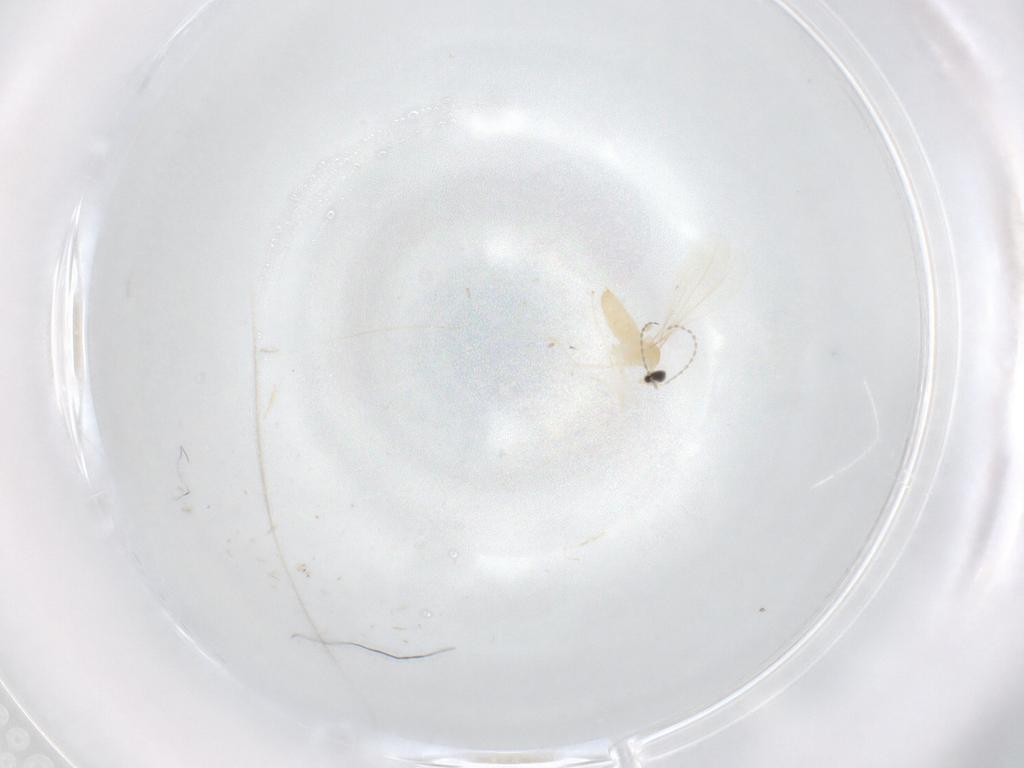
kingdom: Animalia
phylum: Arthropoda
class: Insecta
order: Diptera
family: Cecidomyiidae
